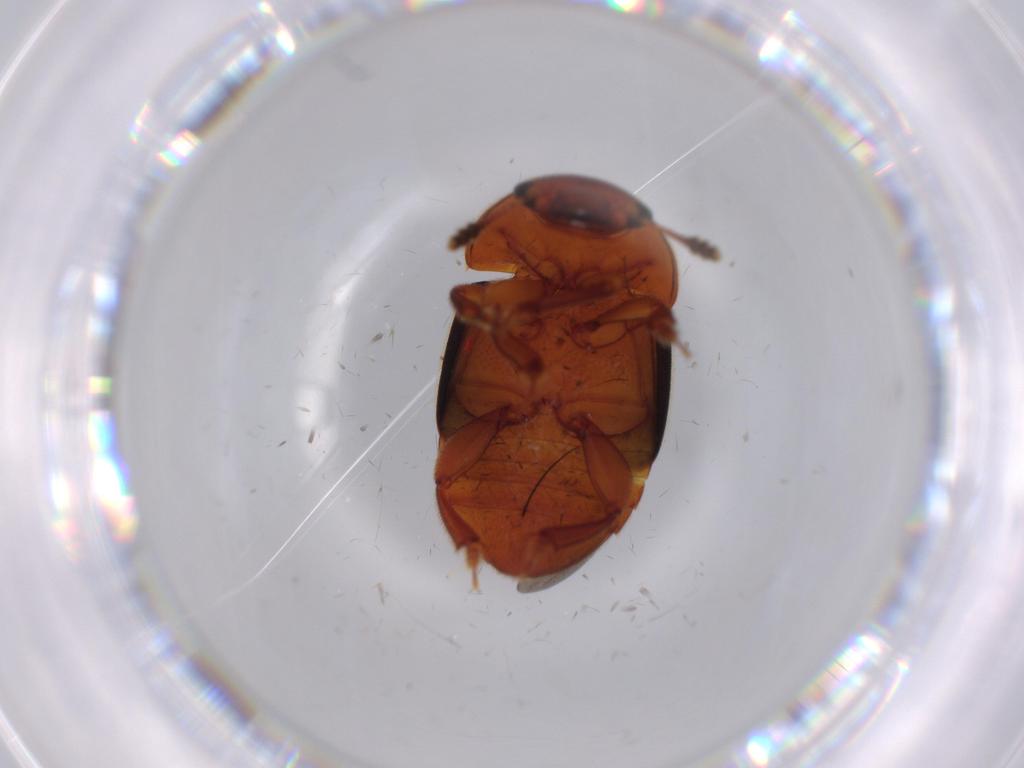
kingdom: Animalia
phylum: Arthropoda
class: Insecta
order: Coleoptera
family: Nitidulidae
